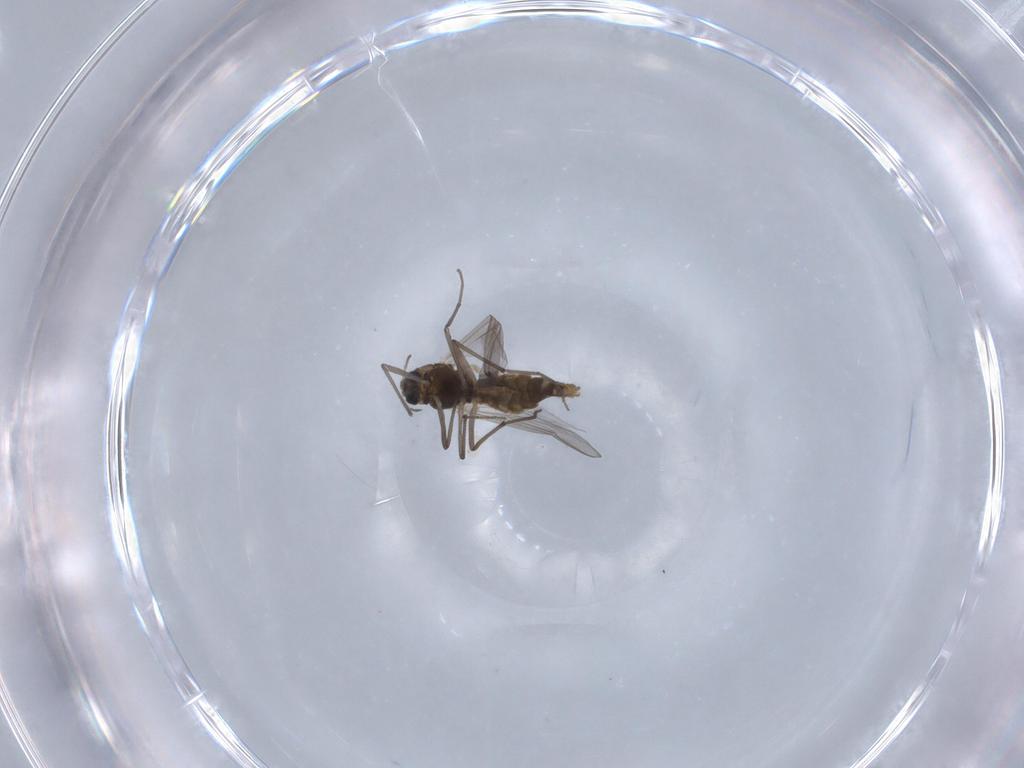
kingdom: Animalia
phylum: Arthropoda
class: Insecta
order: Diptera
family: Chironomidae
